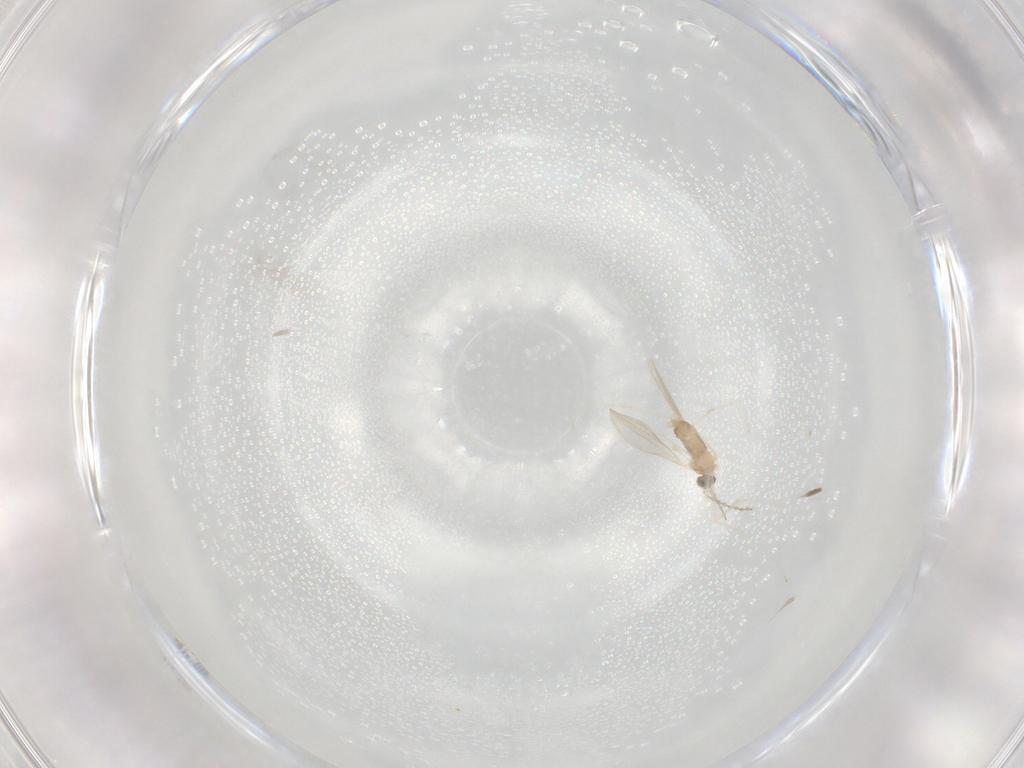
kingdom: Animalia
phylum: Arthropoda
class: Insecta
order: Diptera
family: Cecidomyiidae
